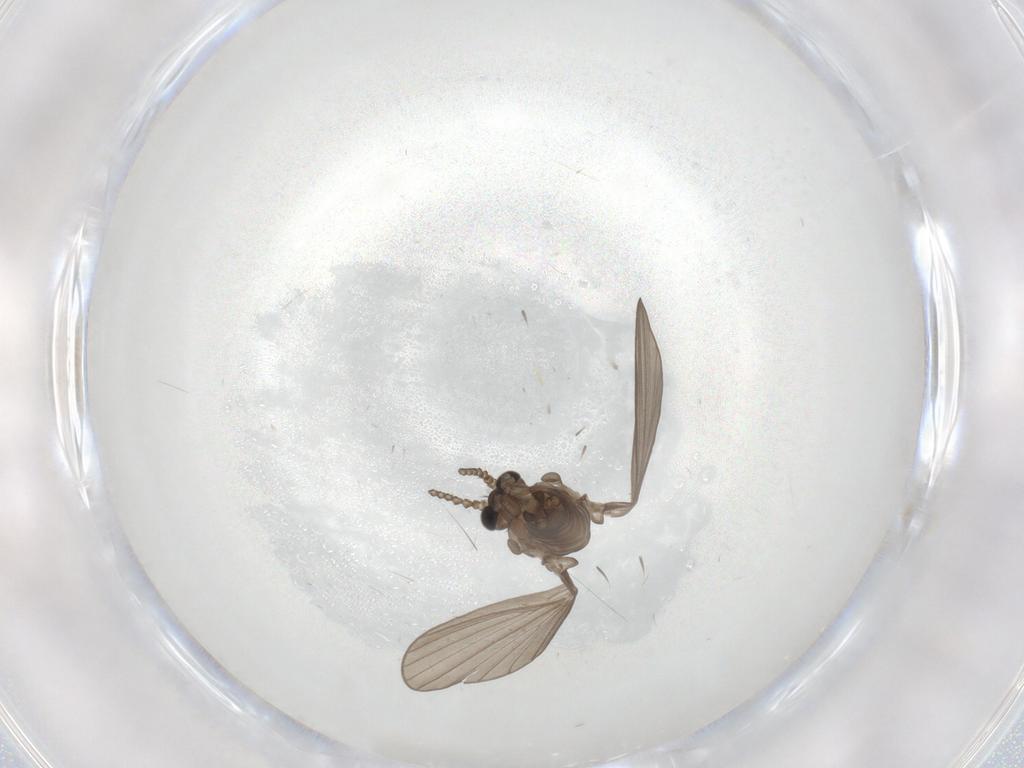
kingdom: Animalia
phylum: Arthropoda
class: Insecta
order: Diptera
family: Psychodidae
